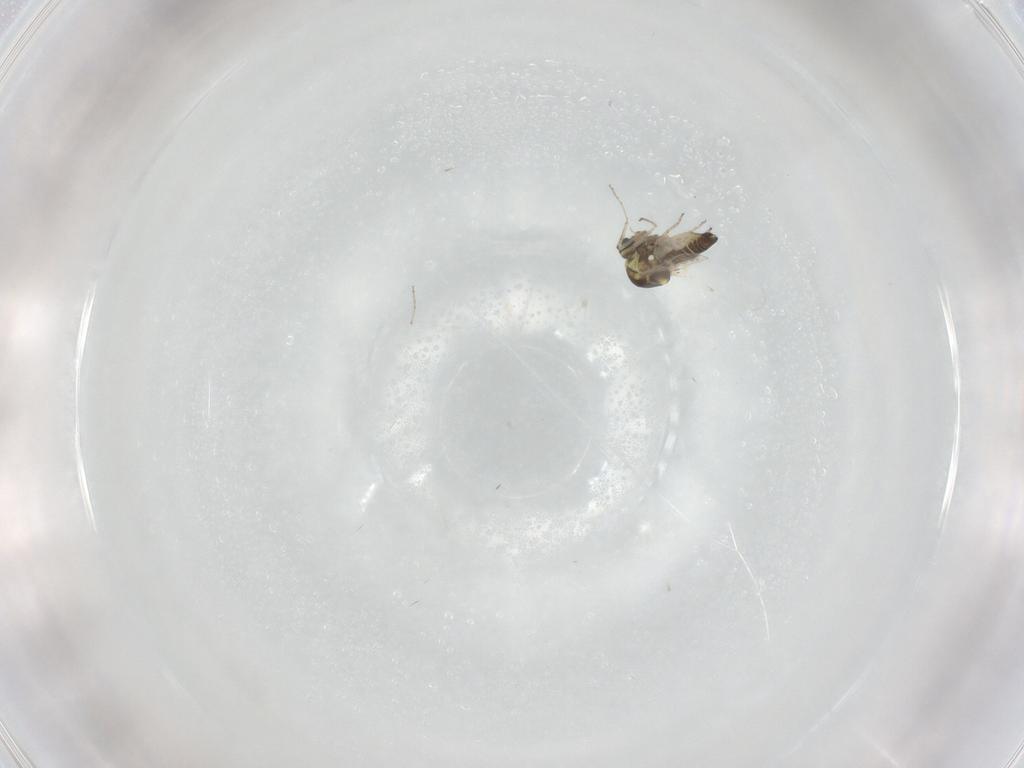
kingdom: Animalia
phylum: Arthropoda
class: Insecta
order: Diptera
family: Ceratopogonidae
